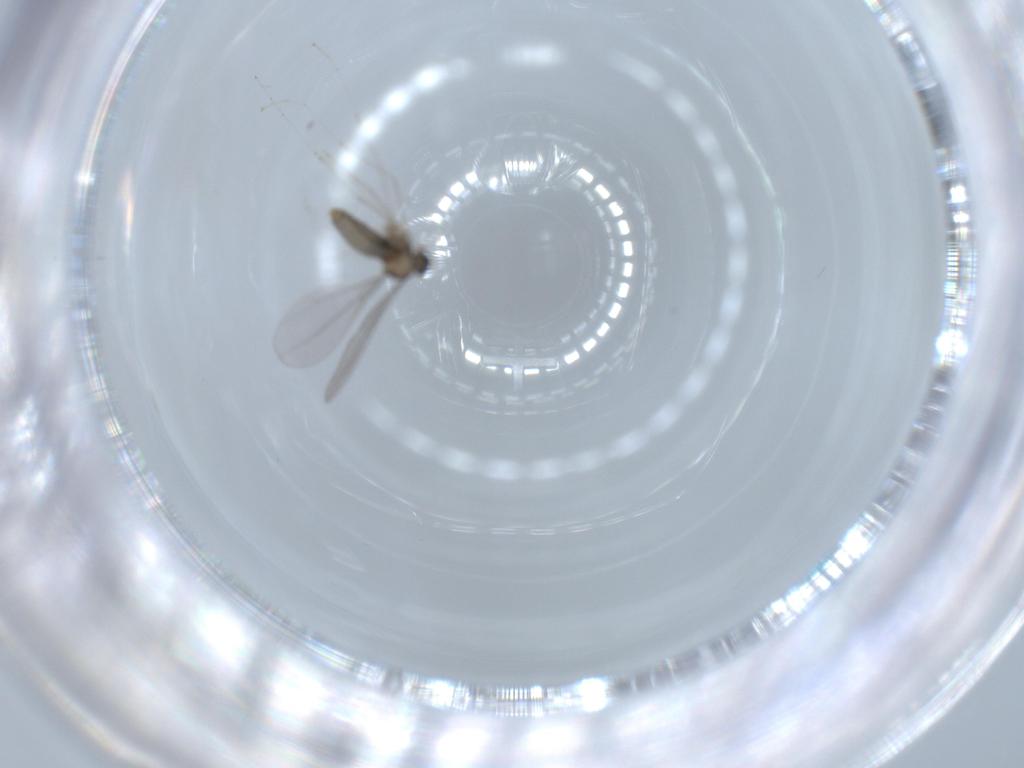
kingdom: Animalia
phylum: Arthropoda
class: Insecta
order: Diptera
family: Cecidomyiidae
